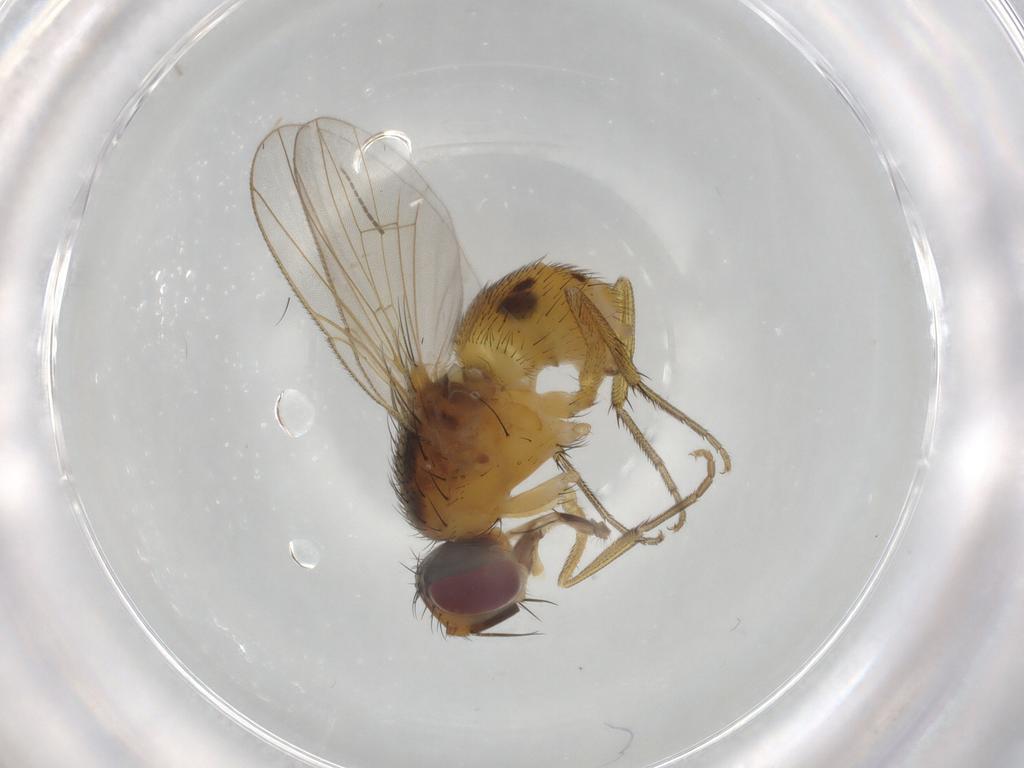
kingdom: Animalia
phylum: Arthropoda
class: Insecta
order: Diptera
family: Muscidae
